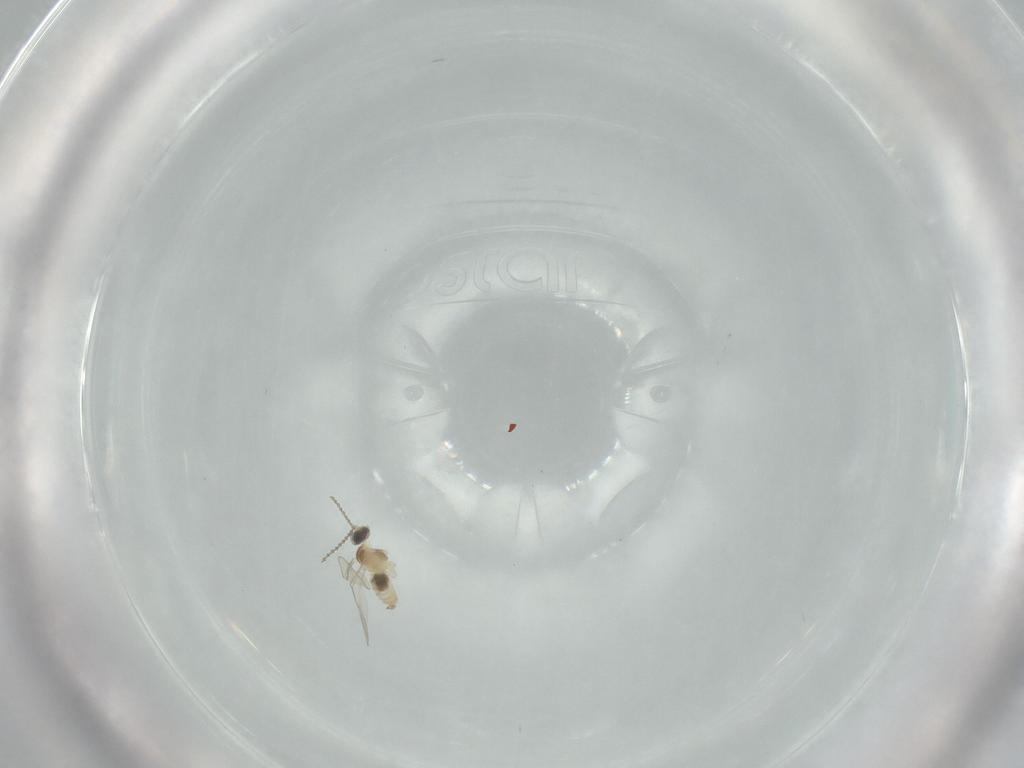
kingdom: Animalia
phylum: Arthropoda
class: Insecta
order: Diptera
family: Cecidomyiidae
